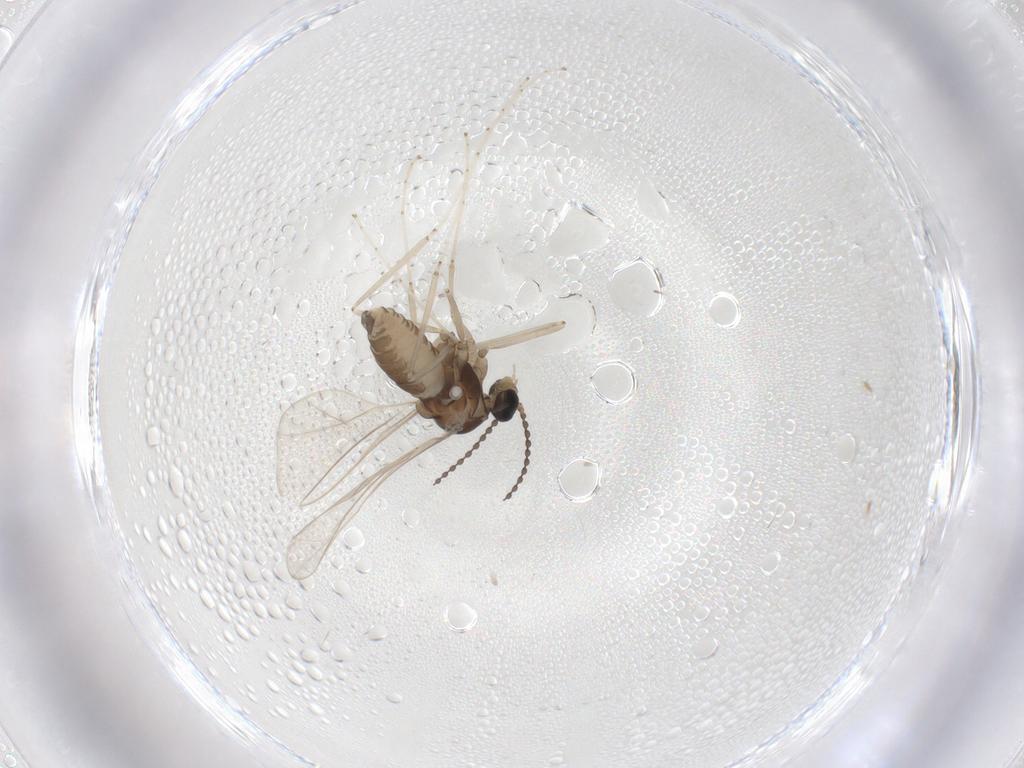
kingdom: Animalia
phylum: Arthropoda
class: Insecta
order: Diptera
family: Cecidomyiidae
